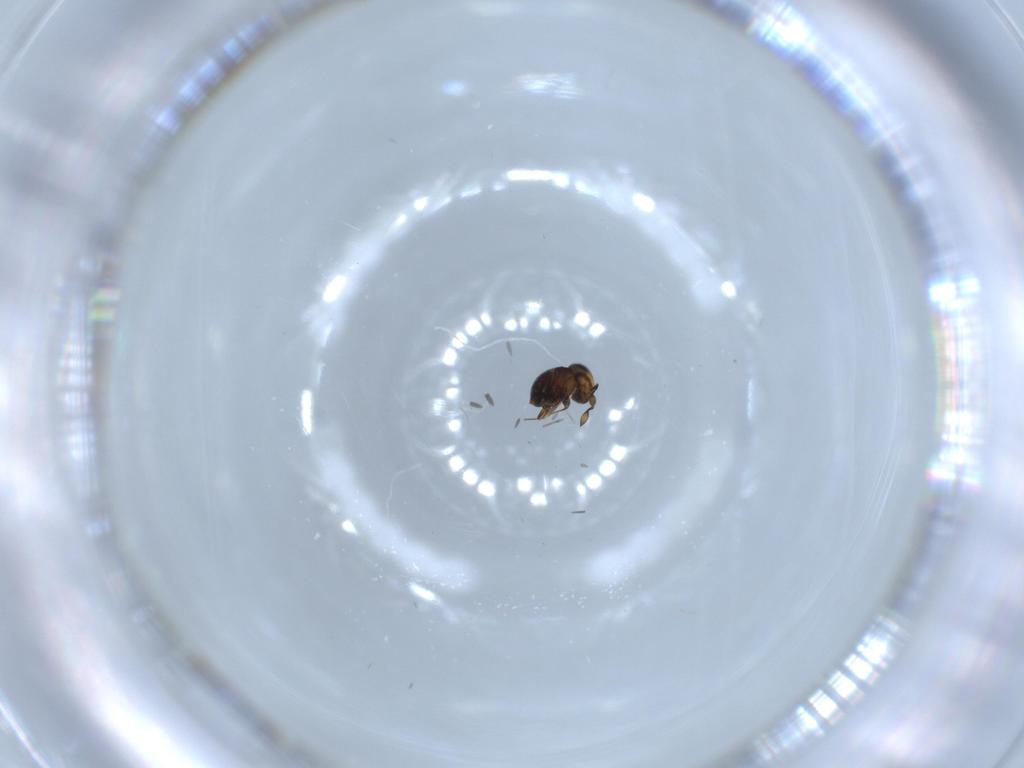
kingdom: Animalia
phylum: Arthropoda
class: Insecta
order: Hymenoptera
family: Scelionidae
